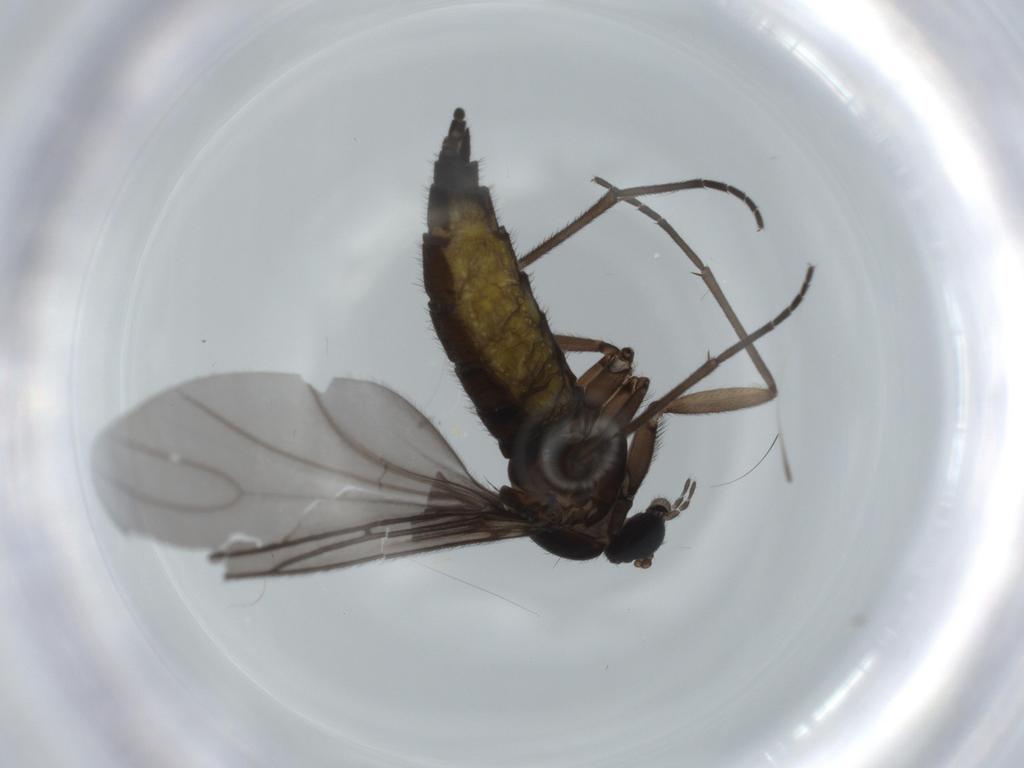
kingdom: Animalia
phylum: Arthropoda
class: Insecta
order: Diptera
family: Sciaridae
